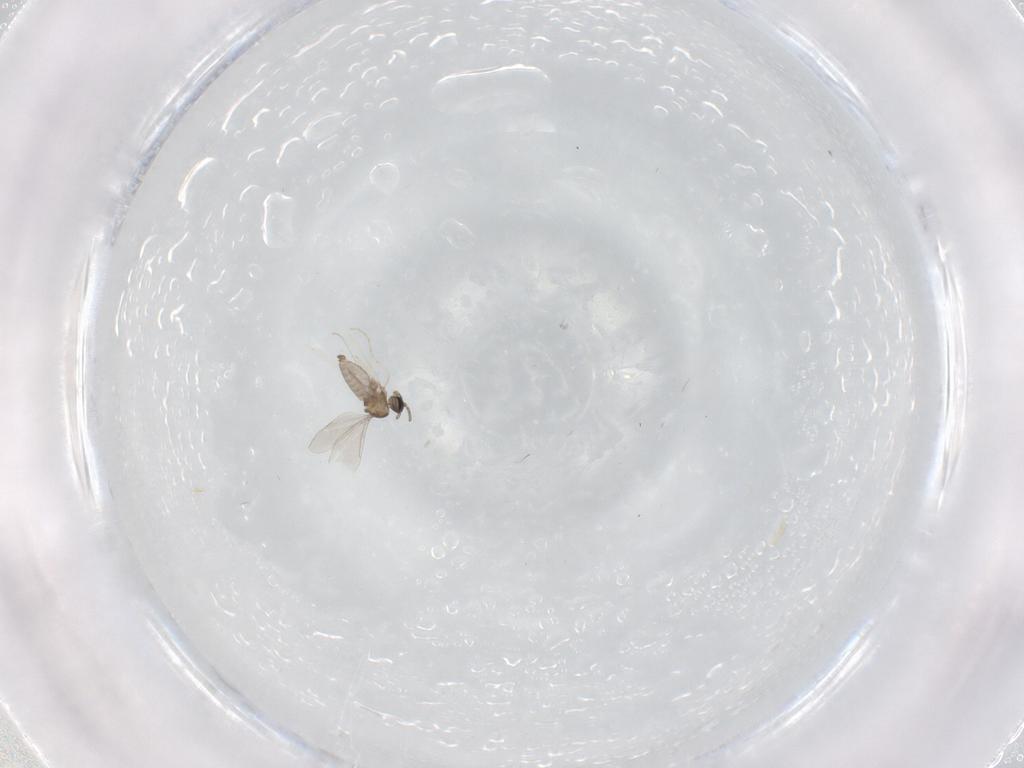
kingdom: Animalia
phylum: Arthropoda
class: Insecta
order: Diptera
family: Cecidomyiidae
